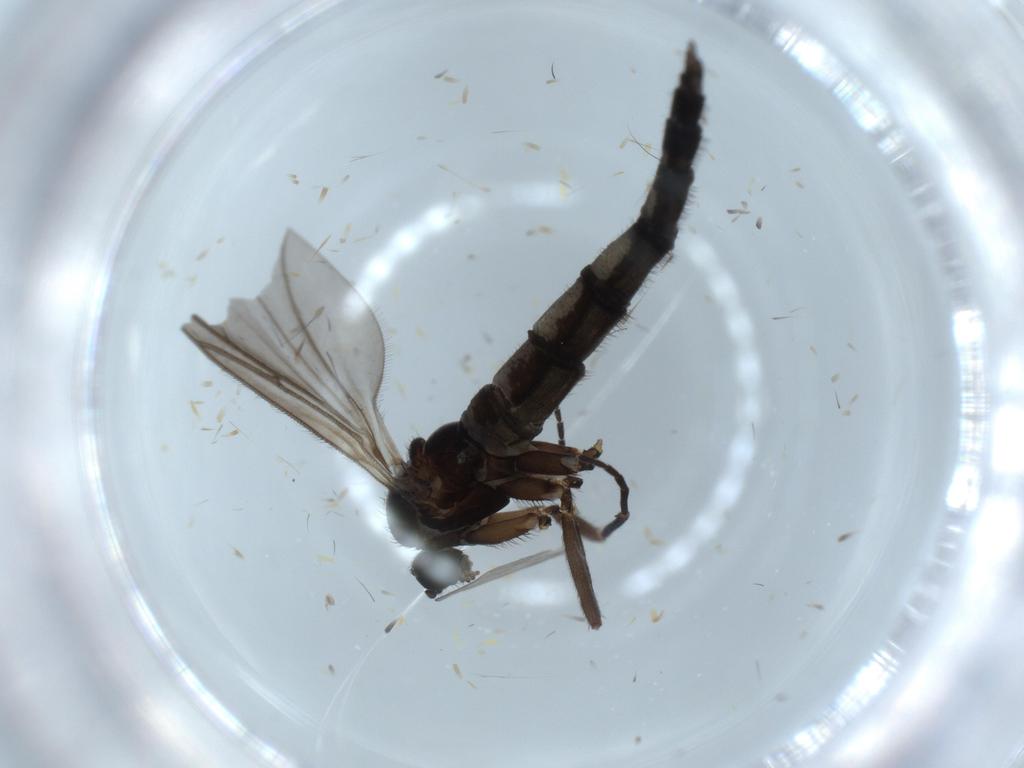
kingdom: Animalia
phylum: Arthropoda
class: Insecta
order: Diptera
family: Sciaridae
